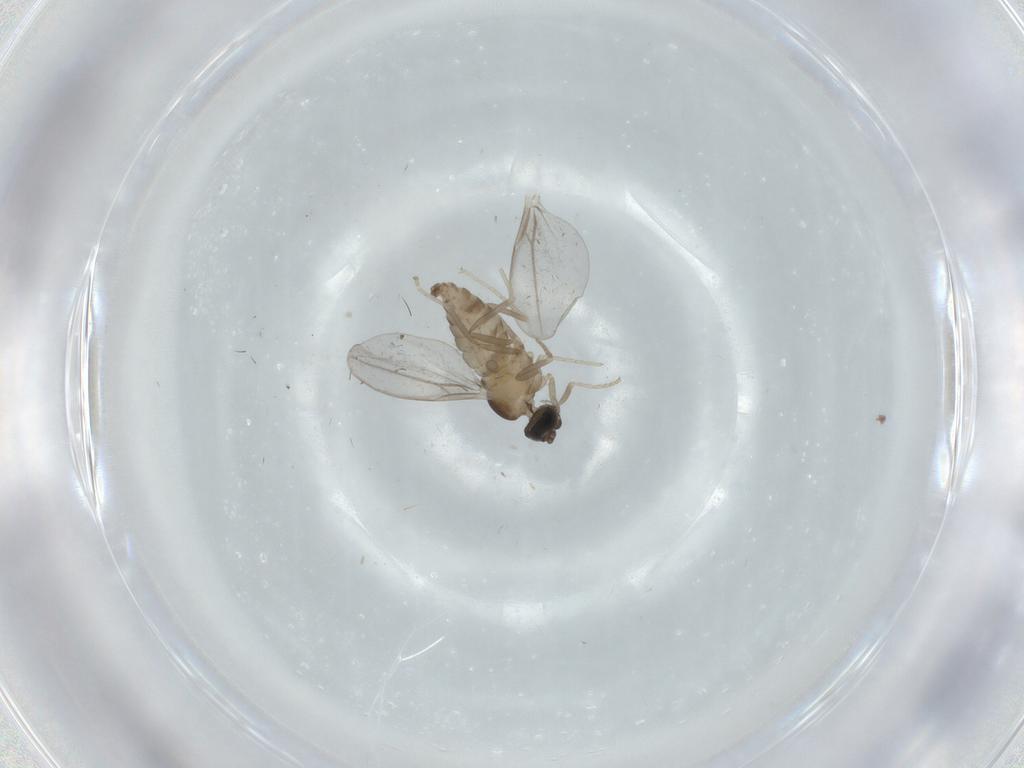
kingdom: Animalia
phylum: Arthropoda
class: Insecta
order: Diptera
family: Cecidomyiidae
